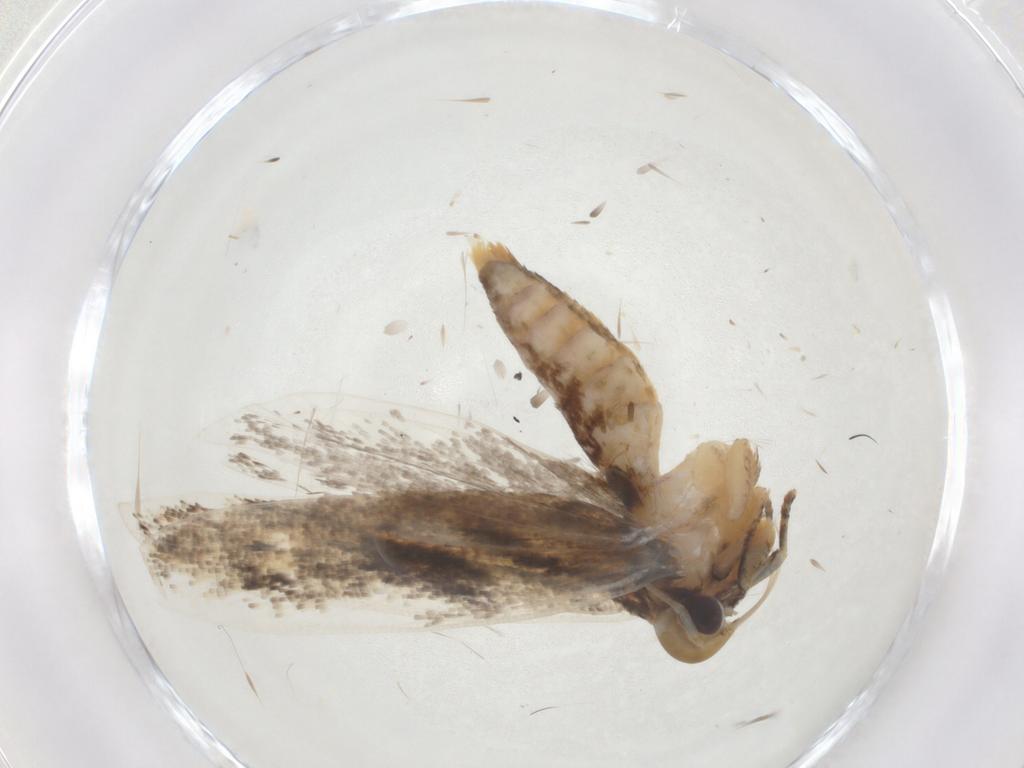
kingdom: Animalia
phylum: Arthropoda
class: Insecta
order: Lepidoptera
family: Gelechiidae
